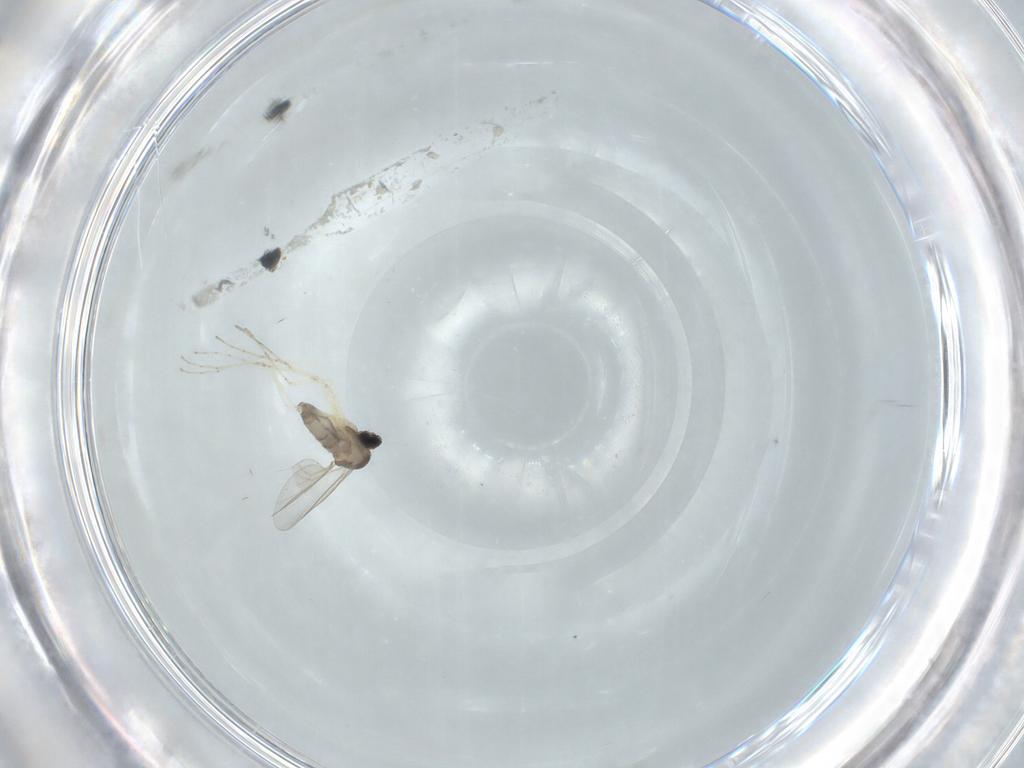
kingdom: Animalia
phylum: Arthropoda
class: Insecta
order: Diptera
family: Cecidomyiidae
